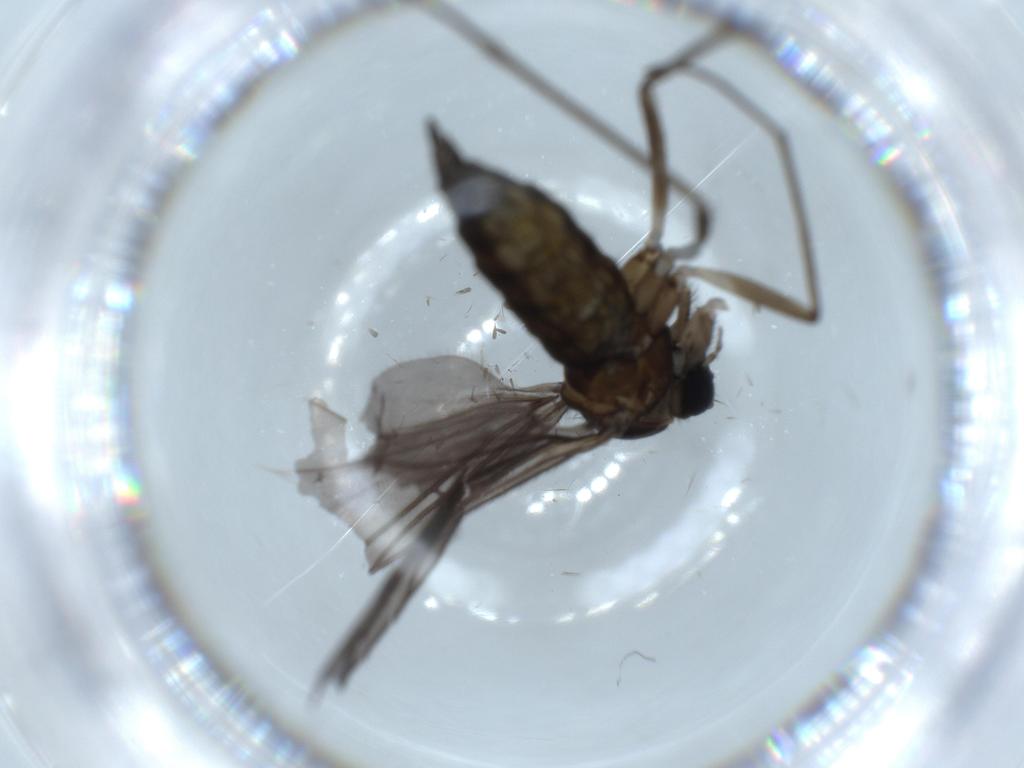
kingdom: Animalia
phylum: Arthropoda
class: Insecta
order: Diptera
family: Sciaridae
